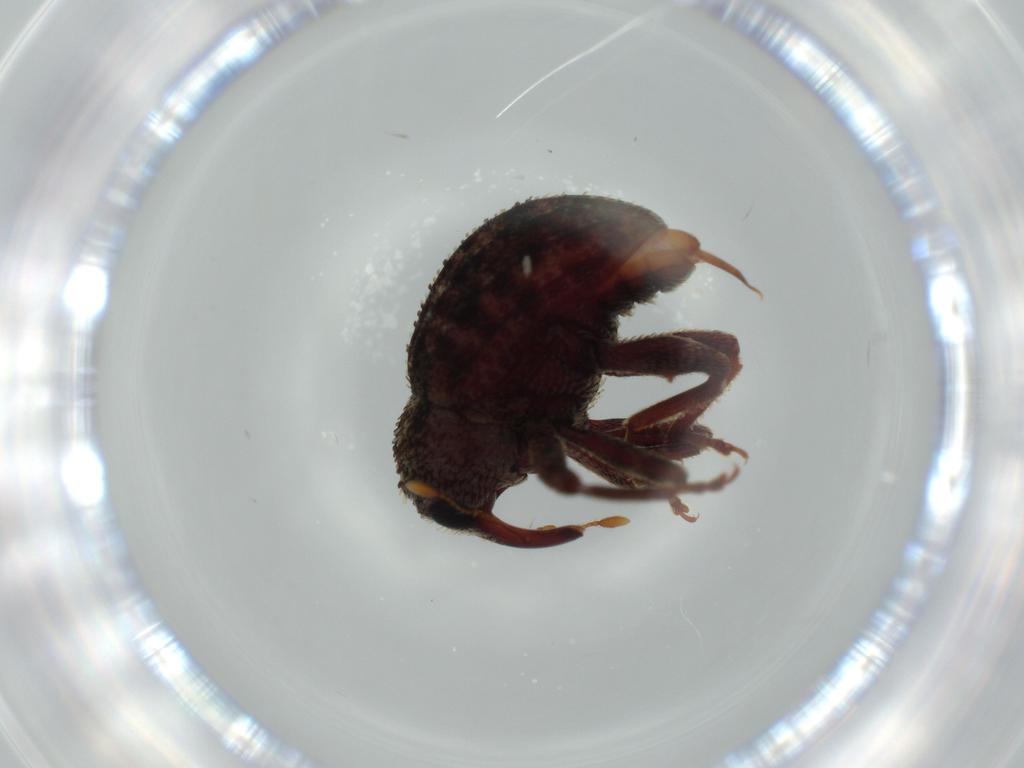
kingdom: Animalia
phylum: Arthropoda
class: Insecta
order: Coleoptera
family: Curculionidae
